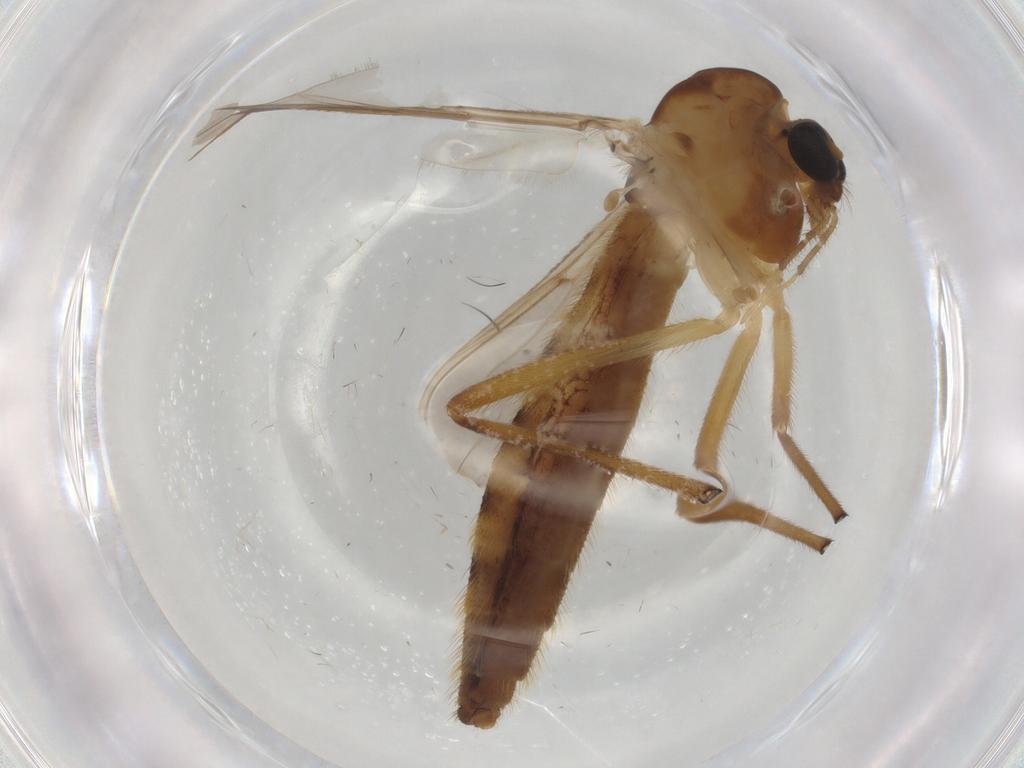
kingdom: Animalia
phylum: Arthropoda
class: Insecta
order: Diptera
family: Chironomidae
